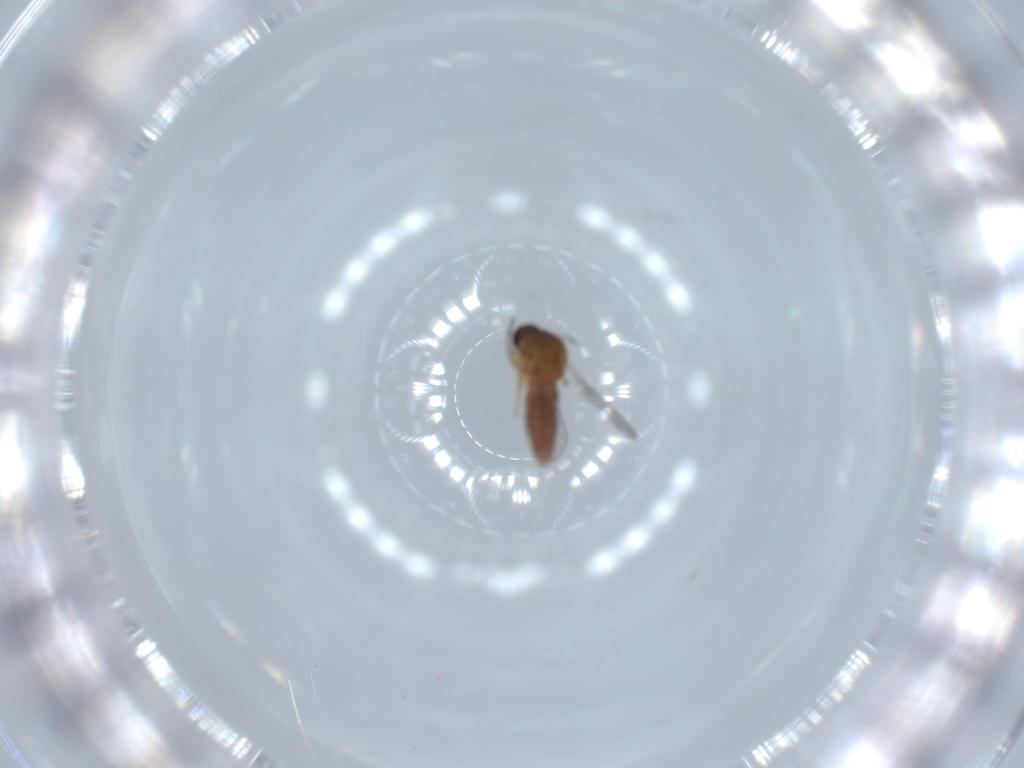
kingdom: Animalia
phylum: Arthropoda
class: Insecta
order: Diptera
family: Ceratopogonidae
